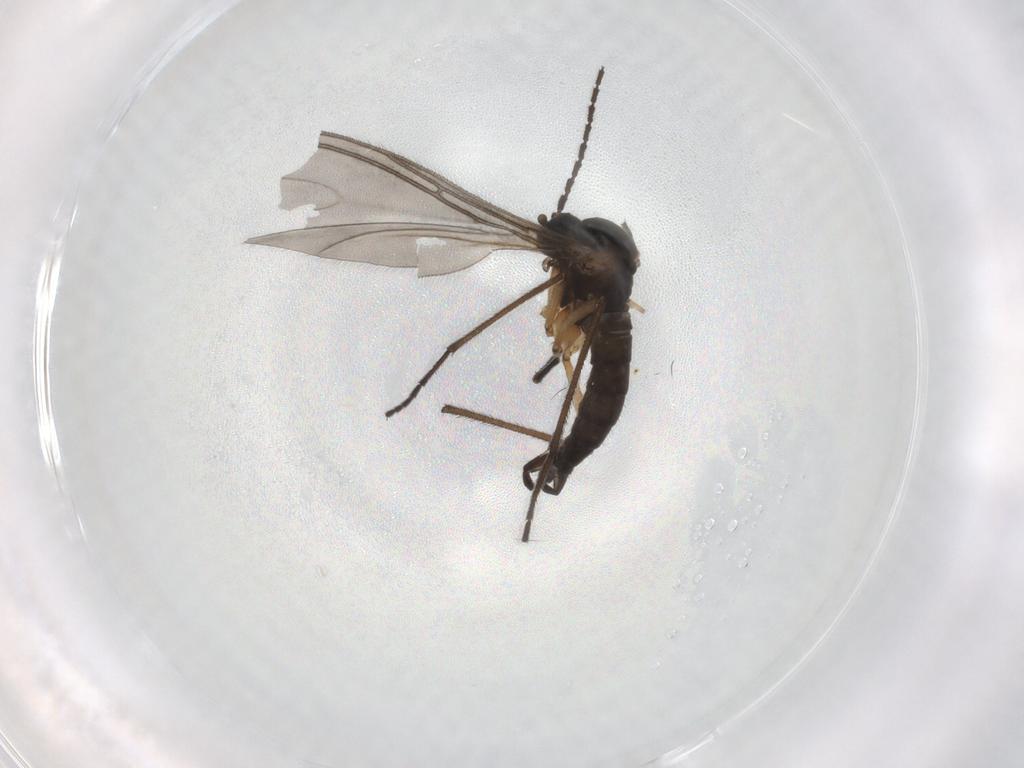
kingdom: Animalia
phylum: Arthropoda
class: Insecta
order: Diptera
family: Sciaridae
